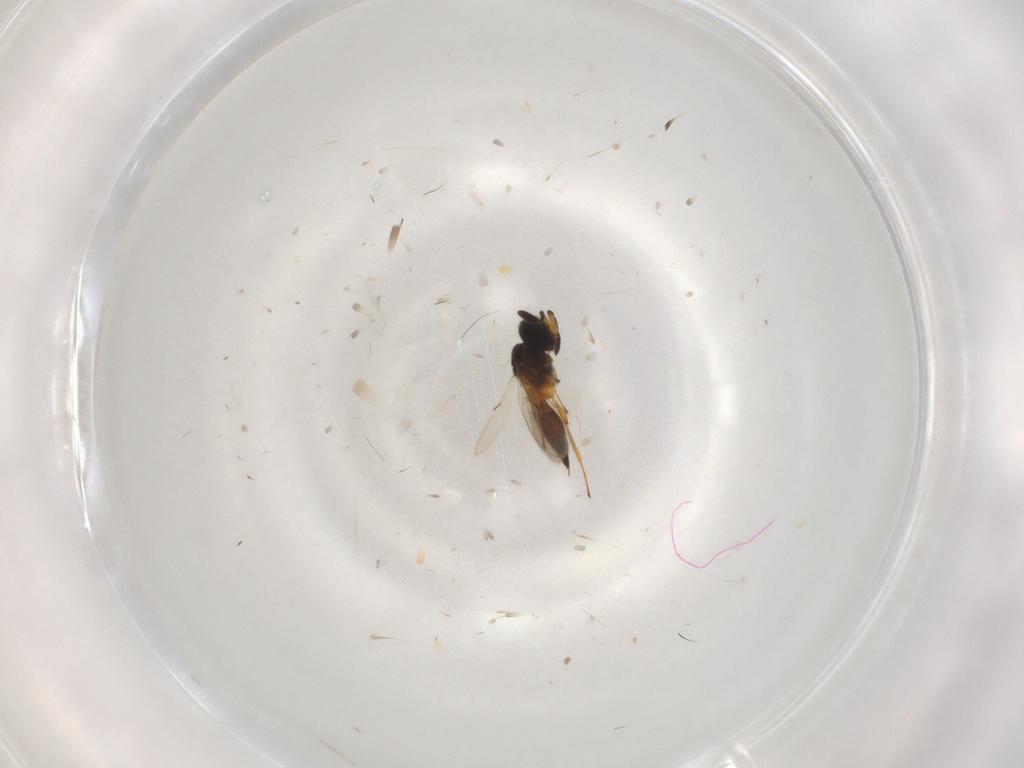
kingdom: Animalia
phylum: Arthropoda
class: Insecta
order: Hymenoptera
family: Scelionidae
